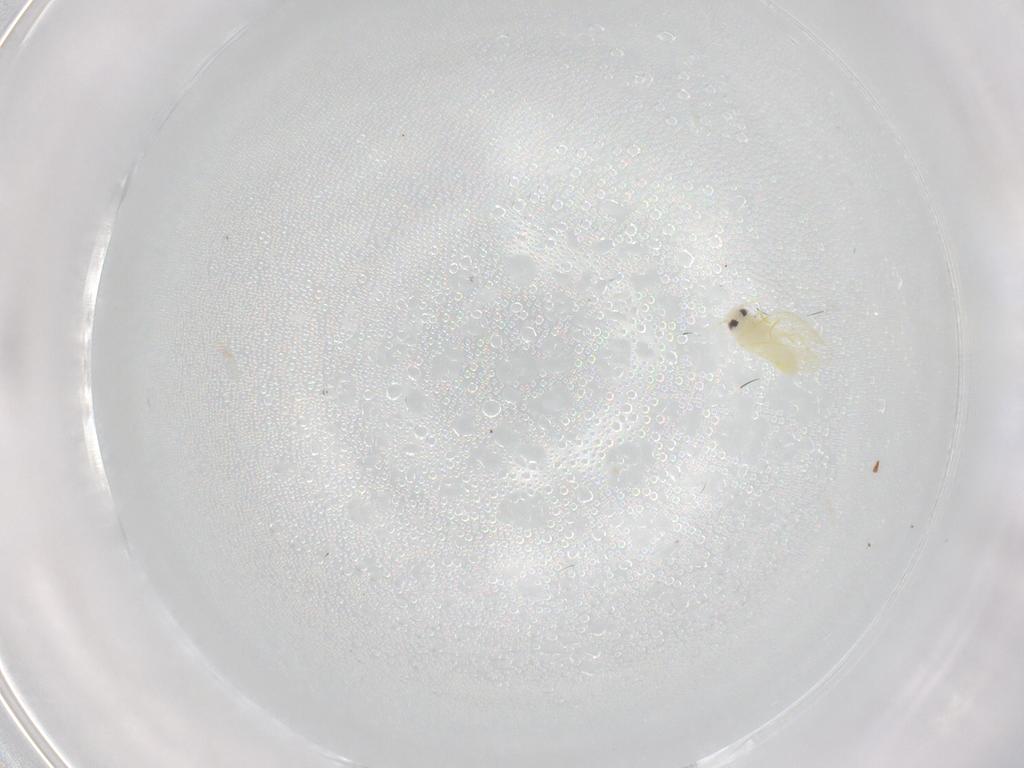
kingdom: Animalia
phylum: Arthropoda
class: Insecta
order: Hemiptera
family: Aleyrodidae
